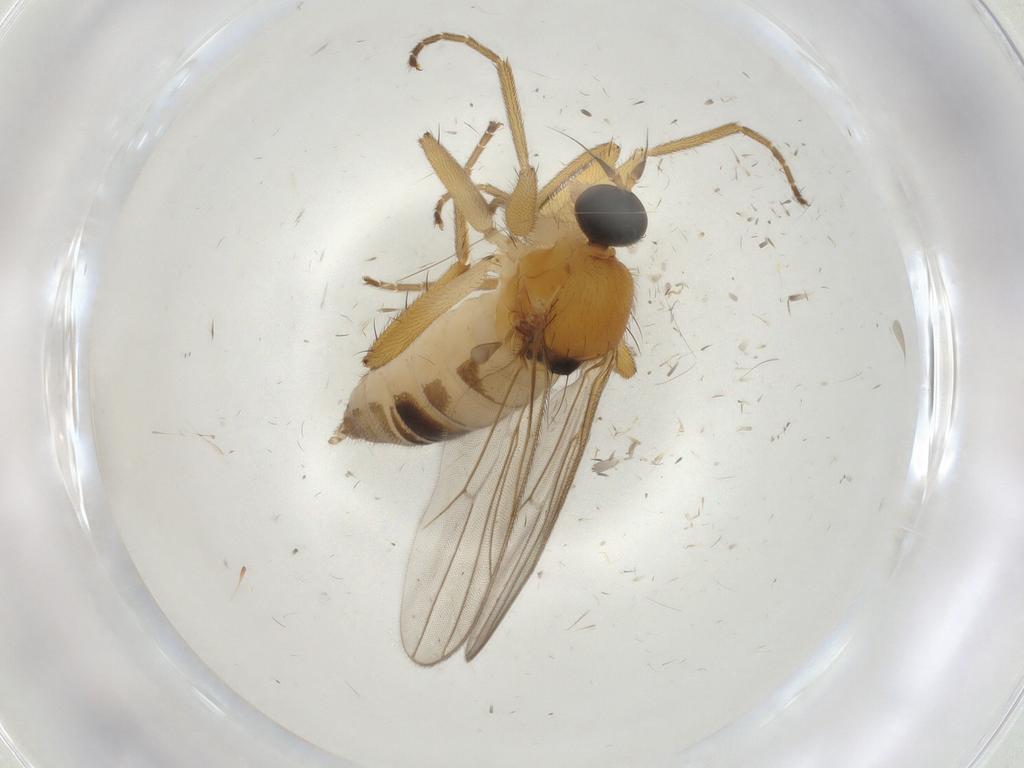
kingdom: Animalia
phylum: Arthropoda
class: Insecta
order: Diptera
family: Hybotidae
